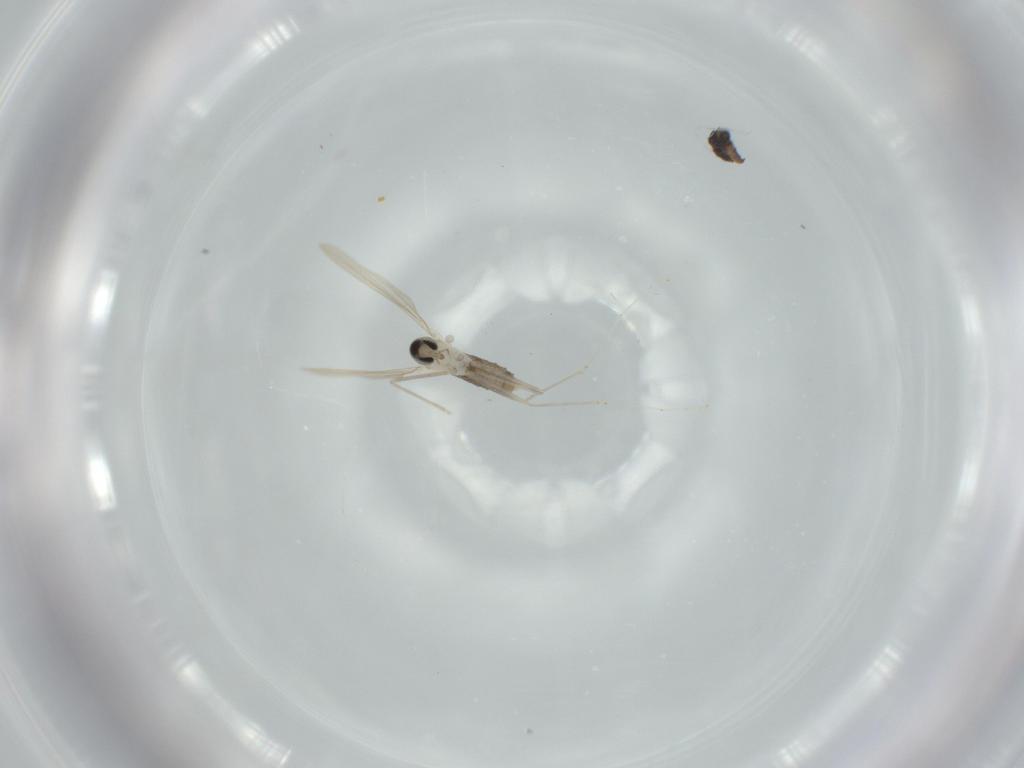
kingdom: Animalia
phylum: Arthropoda
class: Insecta
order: Diptera
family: Cecidomyiidae
